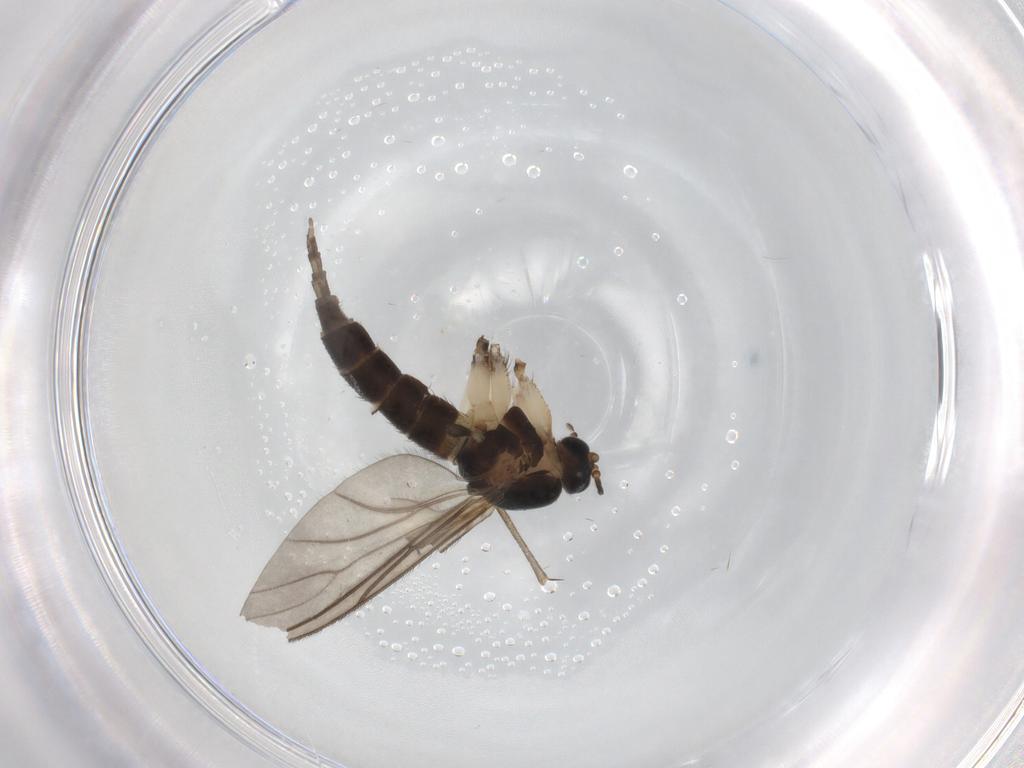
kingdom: Animalia
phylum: Arthropoda
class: Insecta
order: Diptera
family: Sciaridae
